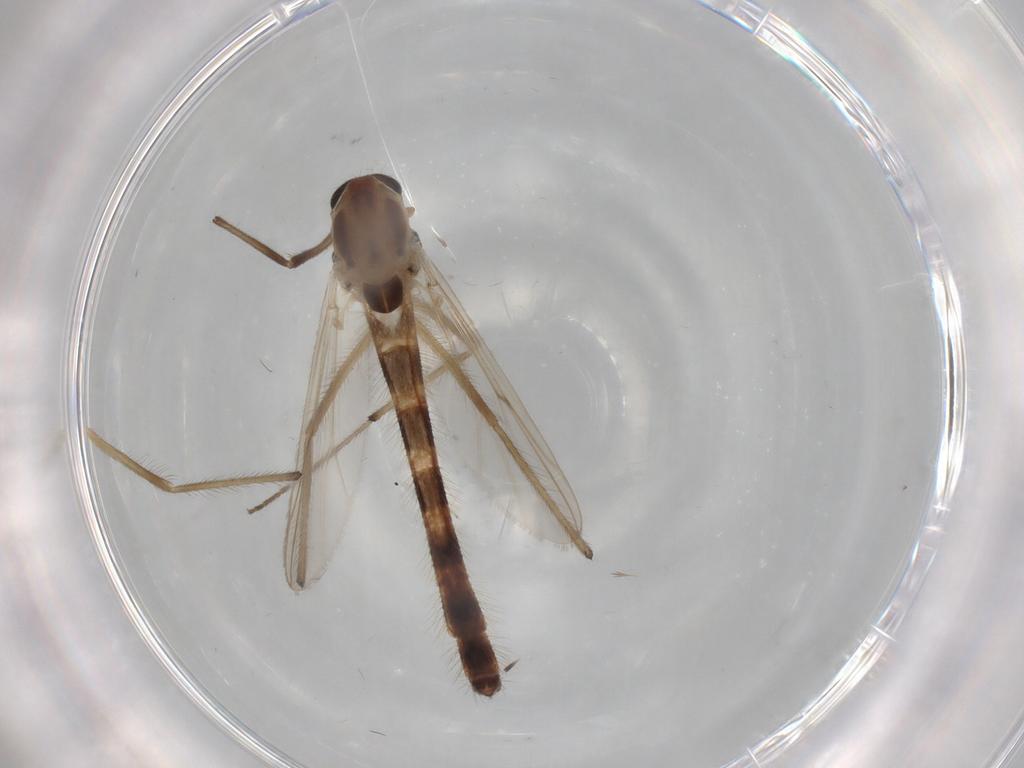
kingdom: Animalia
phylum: Arthropoda
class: Insecta
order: Diptera
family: Chironomidae
